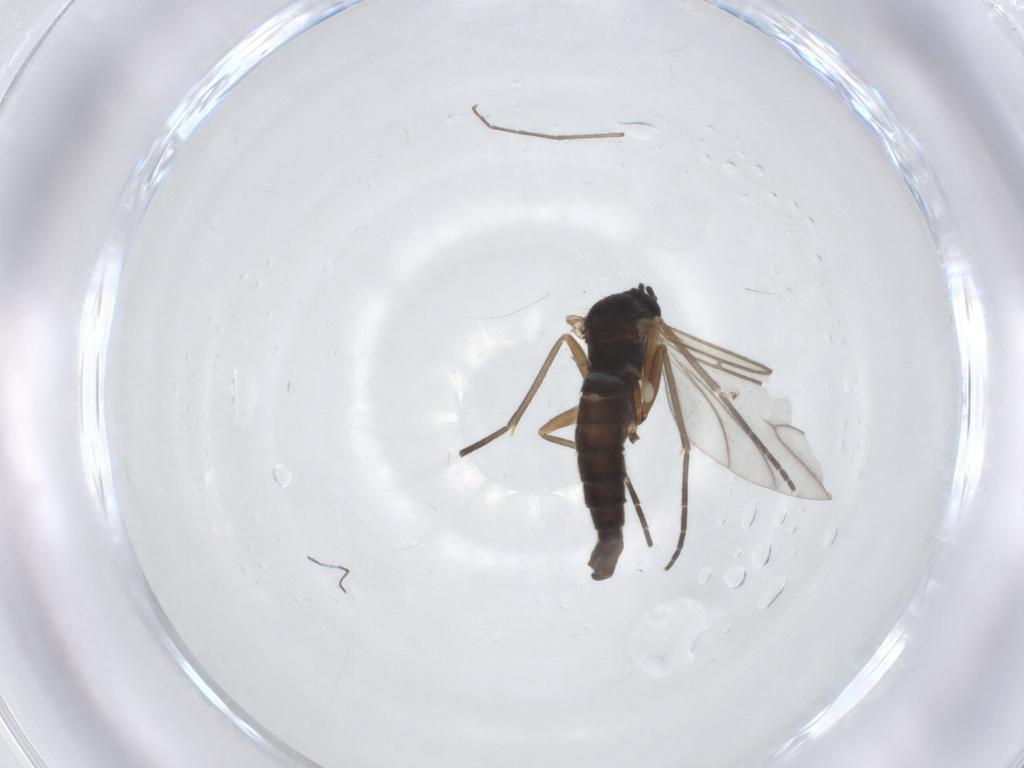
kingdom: Animalia
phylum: Arthropoda
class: Insecta
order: Diptera
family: Sciaridae
